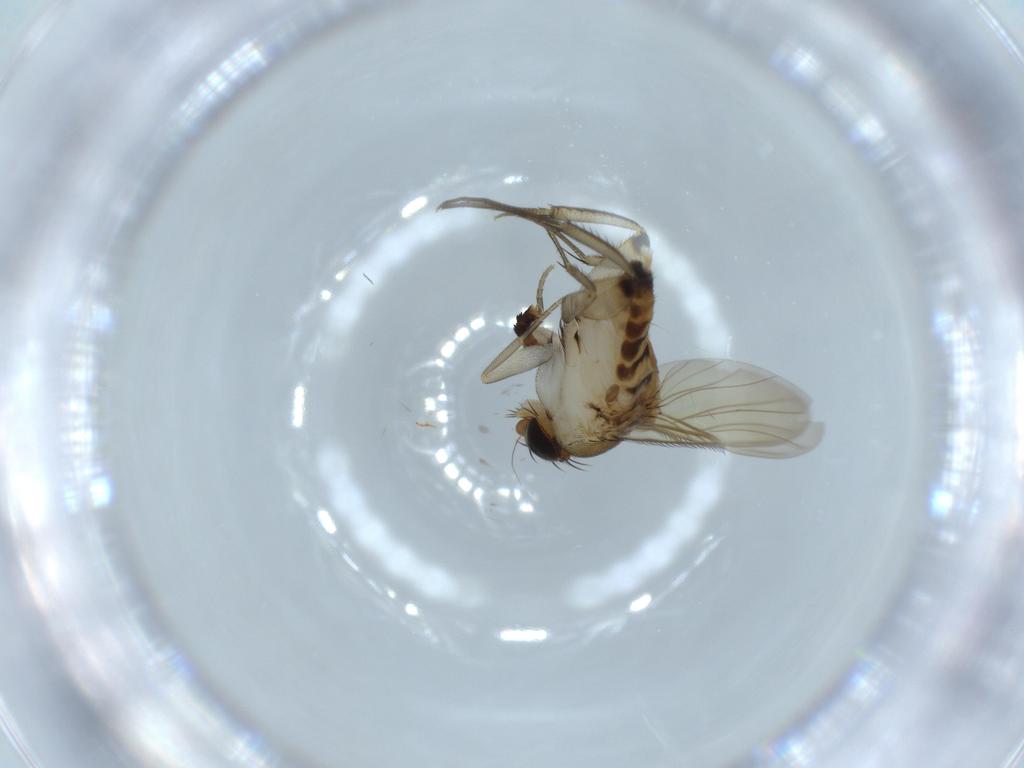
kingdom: Animalia
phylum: Arthropoda
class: Insecta
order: Diptera
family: Phoridae
